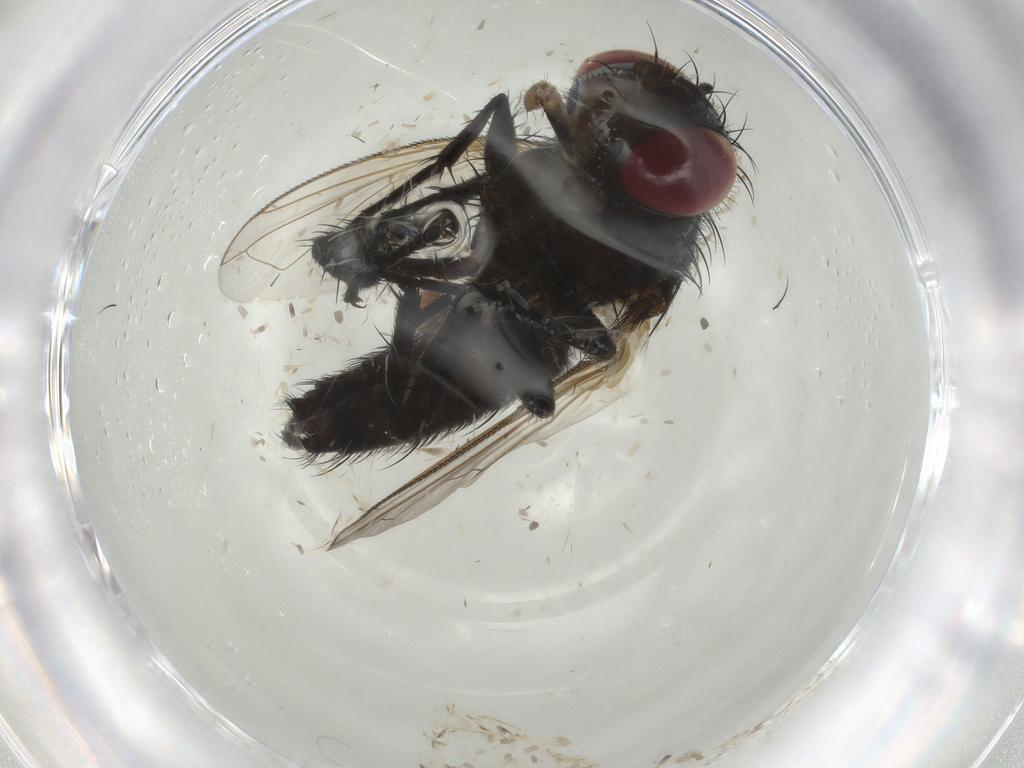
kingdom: Animalia
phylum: Arthropoda
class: Insecta
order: Diptera
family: Tachinidae
